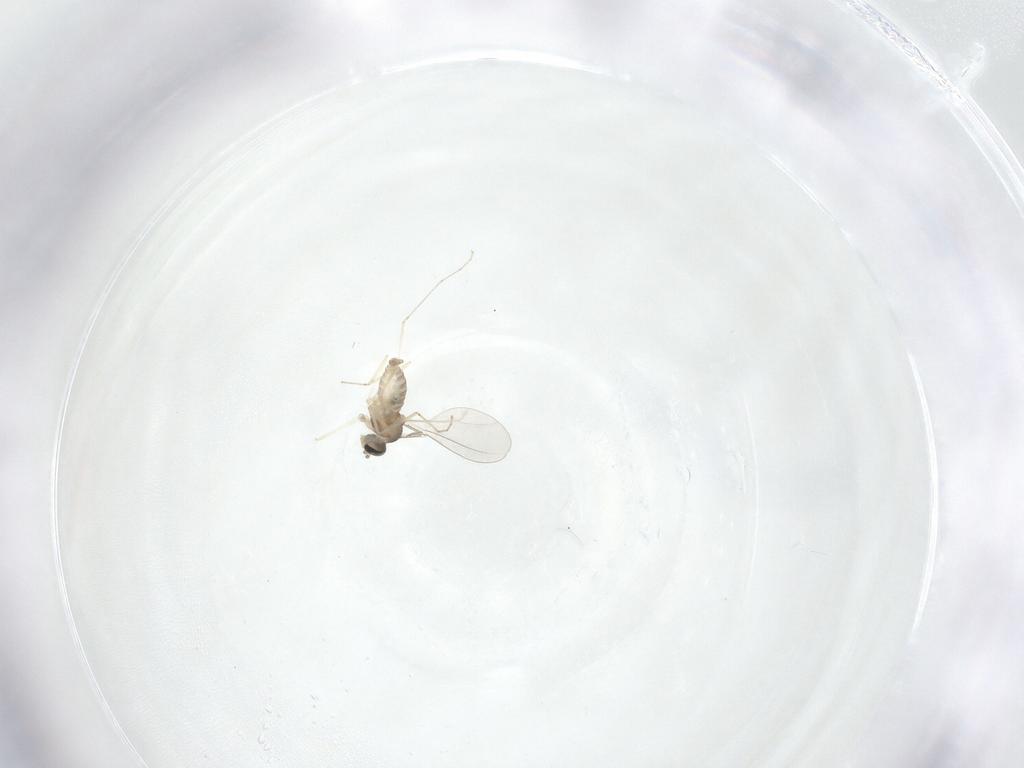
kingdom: Animalia
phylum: Arthropoda
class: Insecta
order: Diptera
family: Cecidomyiidae
